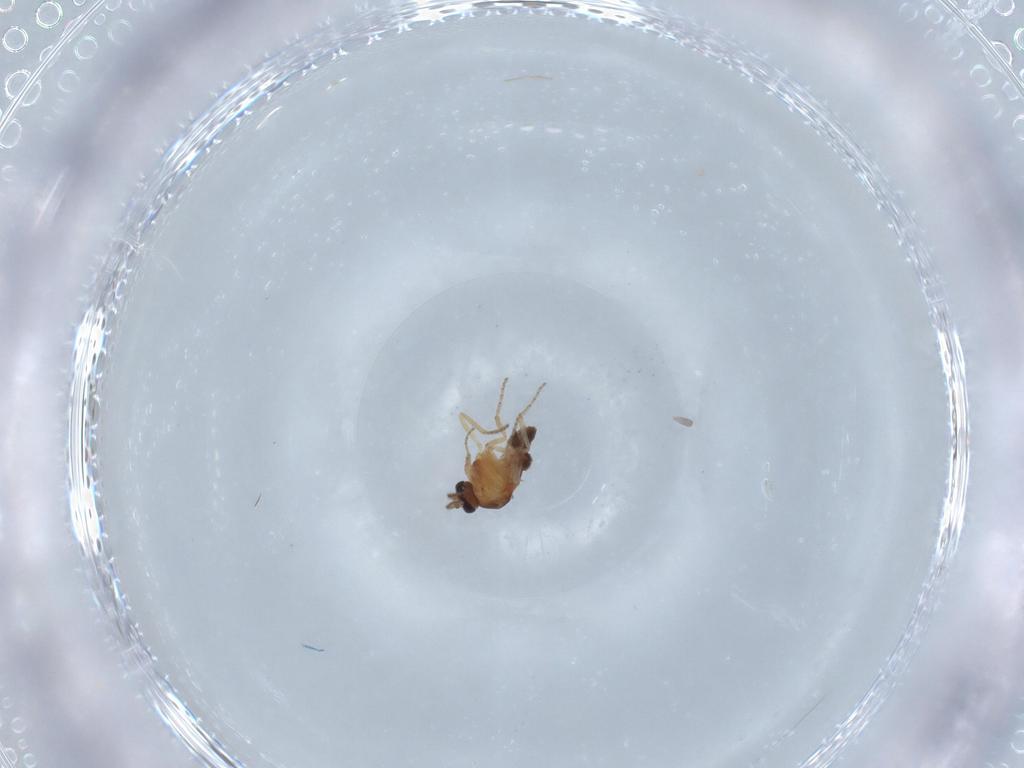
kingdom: Animalia
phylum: Arthropoda
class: Insecta
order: Diptera
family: Ceratopogonidae
